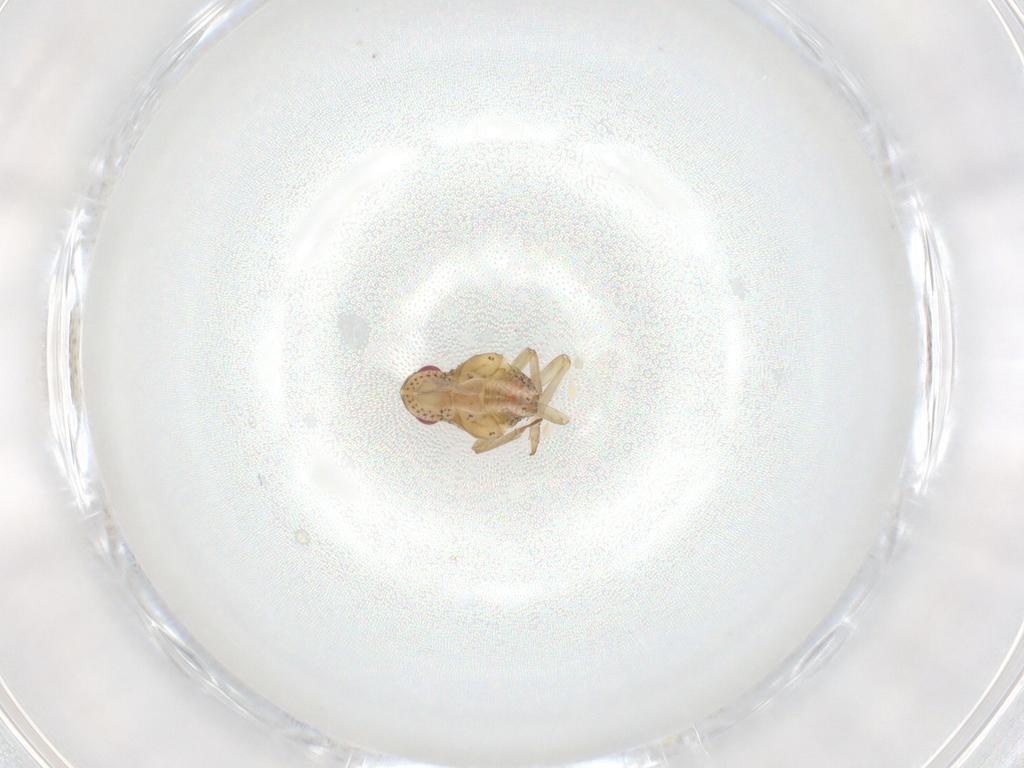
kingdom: Animalia
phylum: Arthropoda
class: Insecta
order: Hemiptera
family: Tropiduchidae
